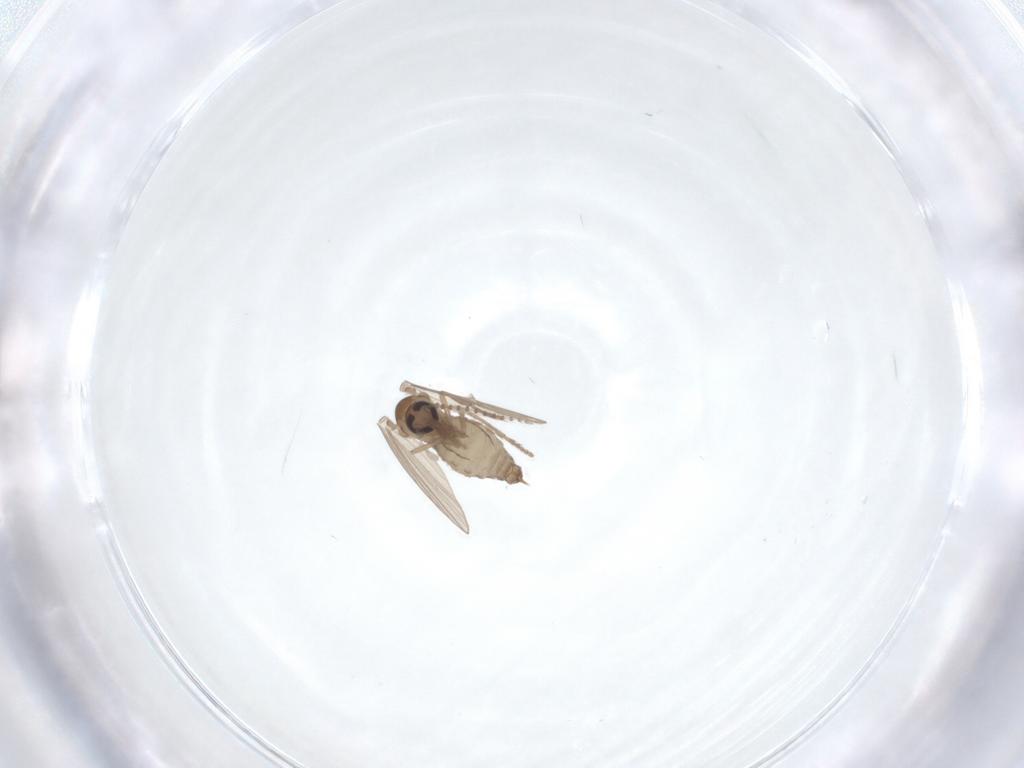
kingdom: Animalia
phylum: Arthropoda
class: Insecta
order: Diptera
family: Psychodidae
